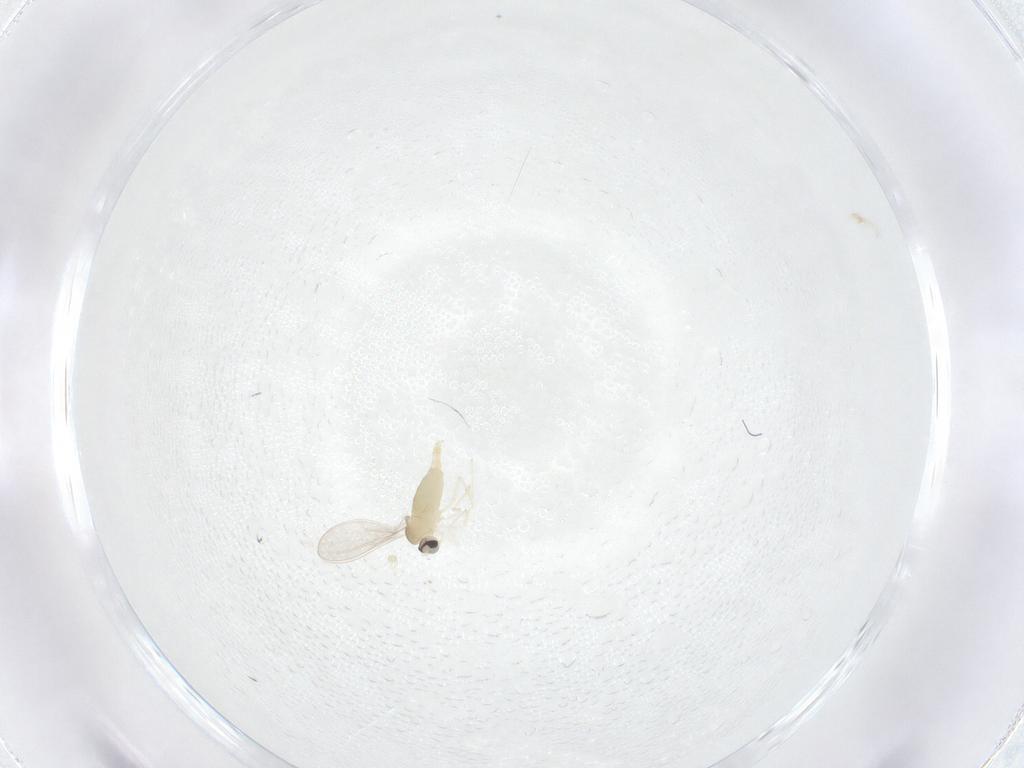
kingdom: Animalia
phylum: Arthropoda
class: Insecta
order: Diptera
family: Cecidomyiidae
